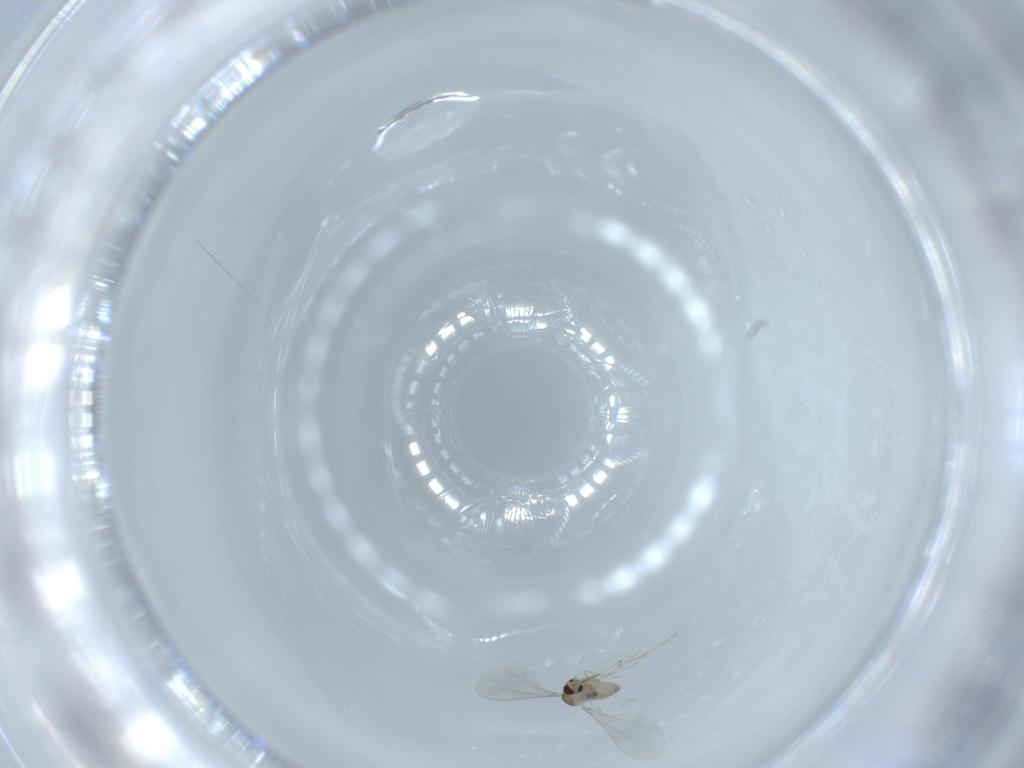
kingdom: Animalia
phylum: Arthropoda
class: Insecta
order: Diptera
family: Cecidomyiidae
